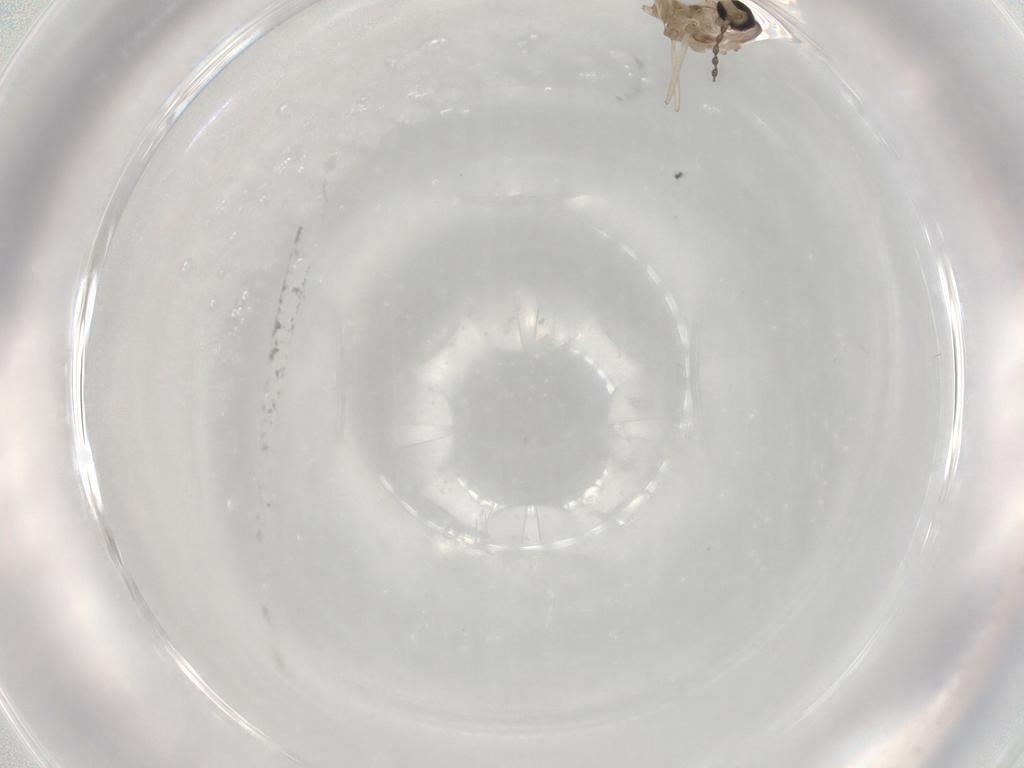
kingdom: Animalia
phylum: Arthropoda
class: Insecta
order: Diptera
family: Cecidomyiidae
